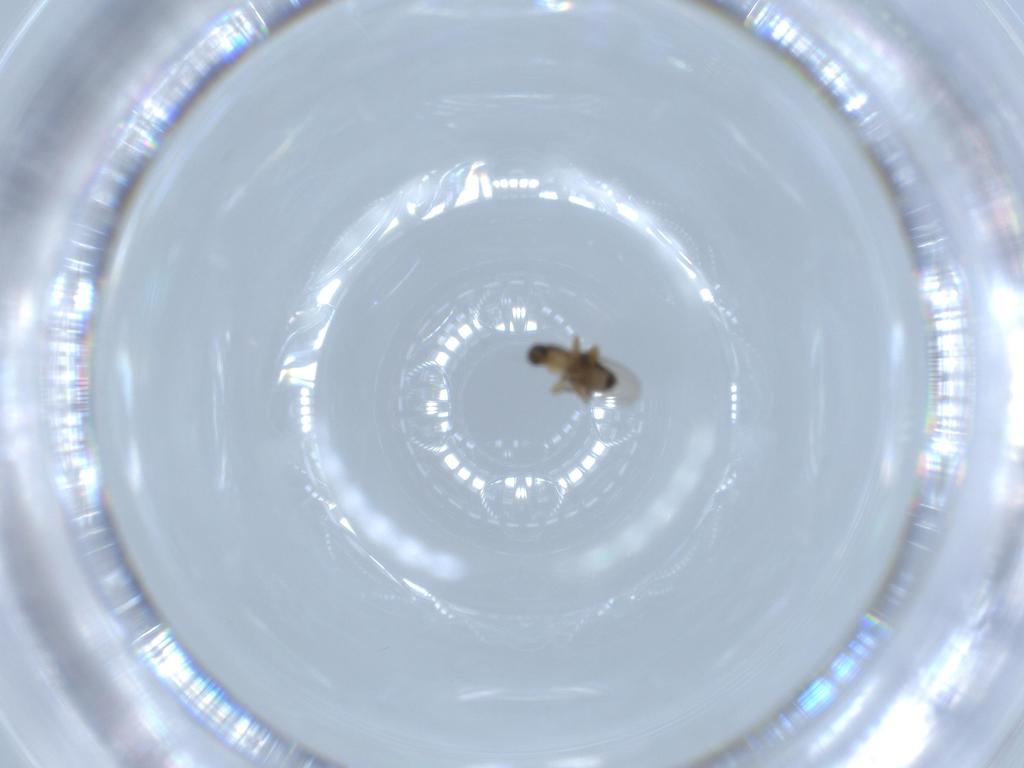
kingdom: Animalia
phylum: Arthropoda
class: Insecta
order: Diptera
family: Phoridae
